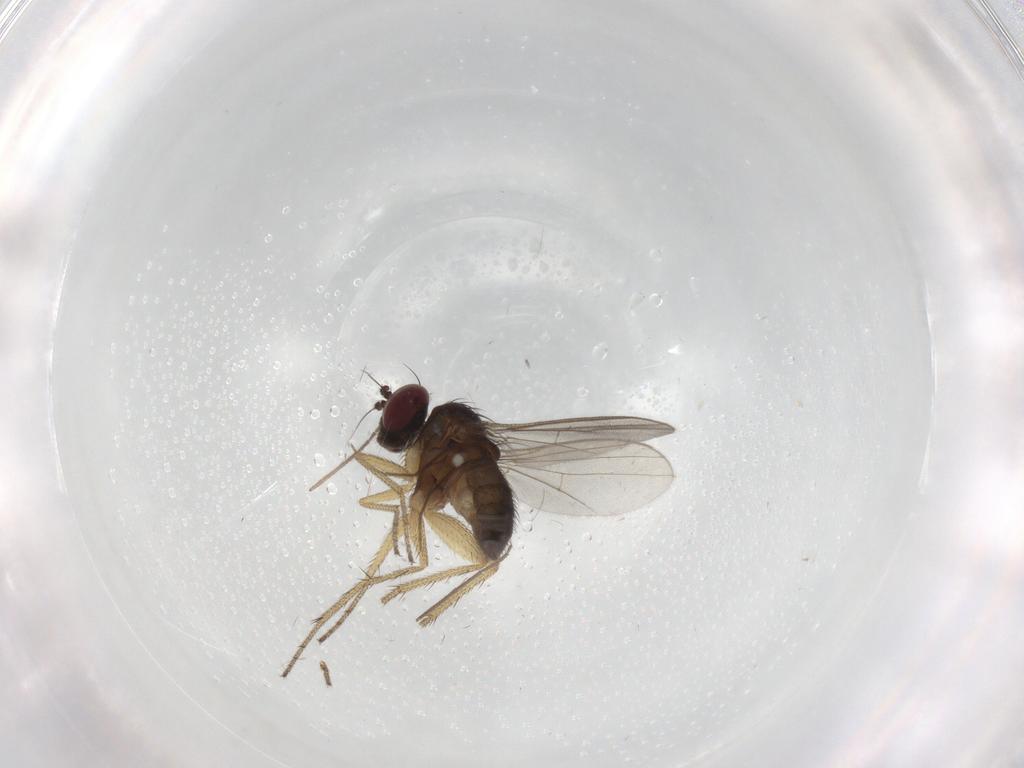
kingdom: Animalia
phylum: Arthropoda
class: Insecta
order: Diptera
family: Chironomidae
